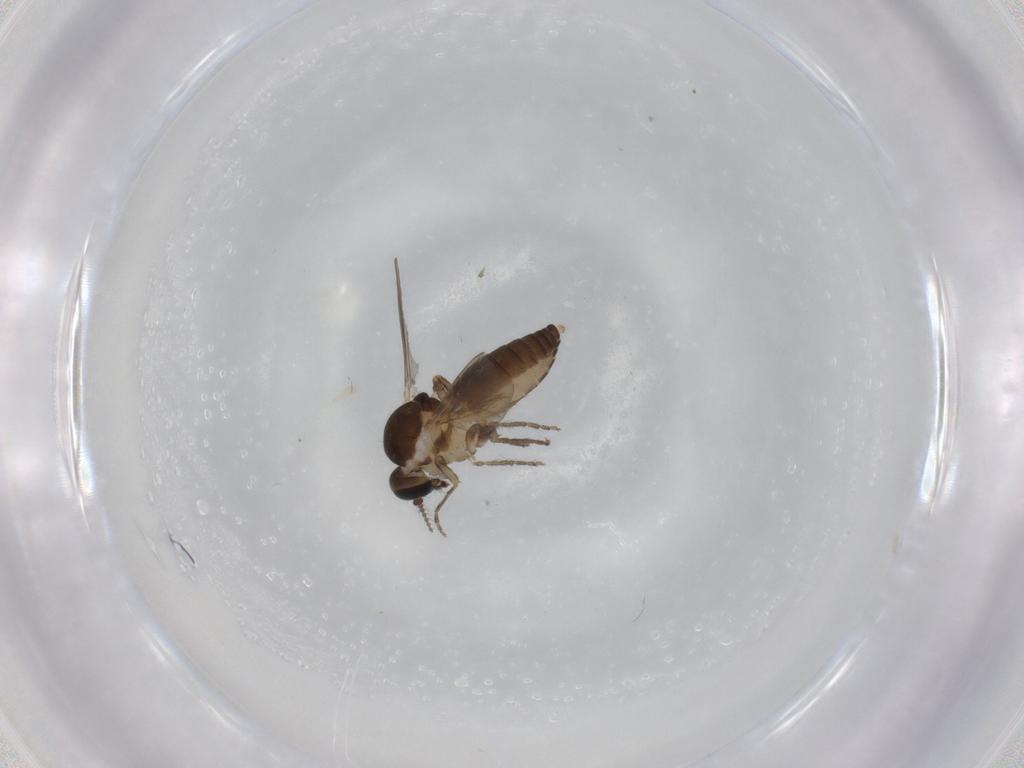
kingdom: Animalia
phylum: Arthropoda
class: Insecta
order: Diptera
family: Ceratopogonidae
